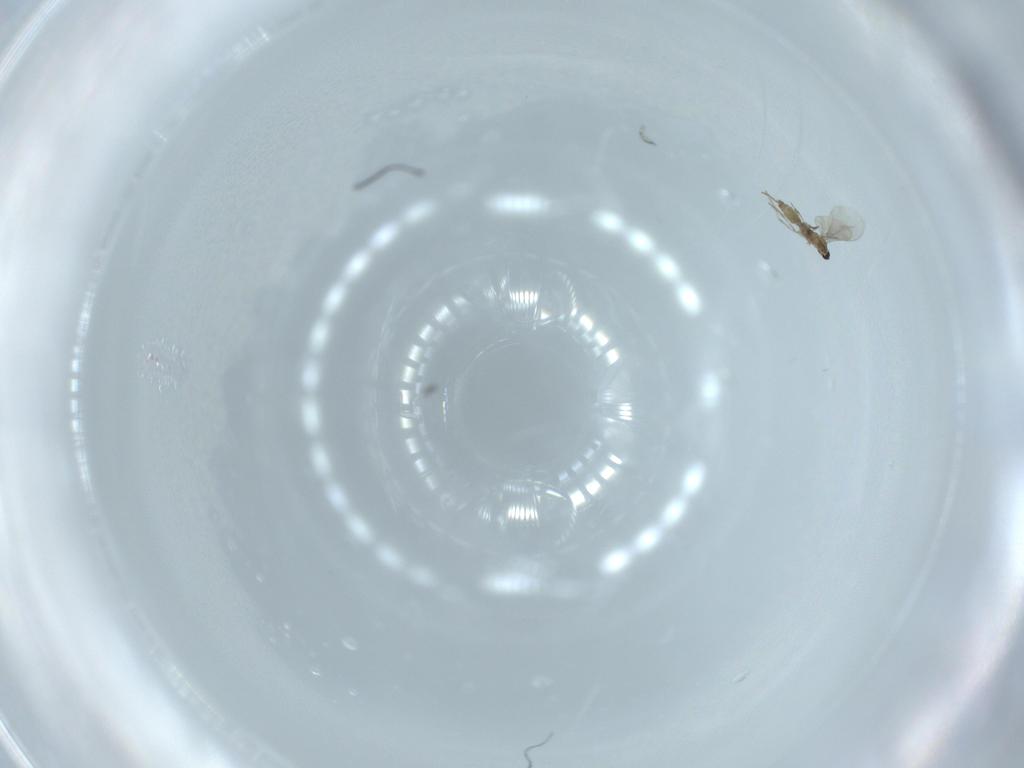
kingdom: Animalia
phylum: Arthropoda
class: Insecta
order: Diptera
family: Cecidomyiidae
